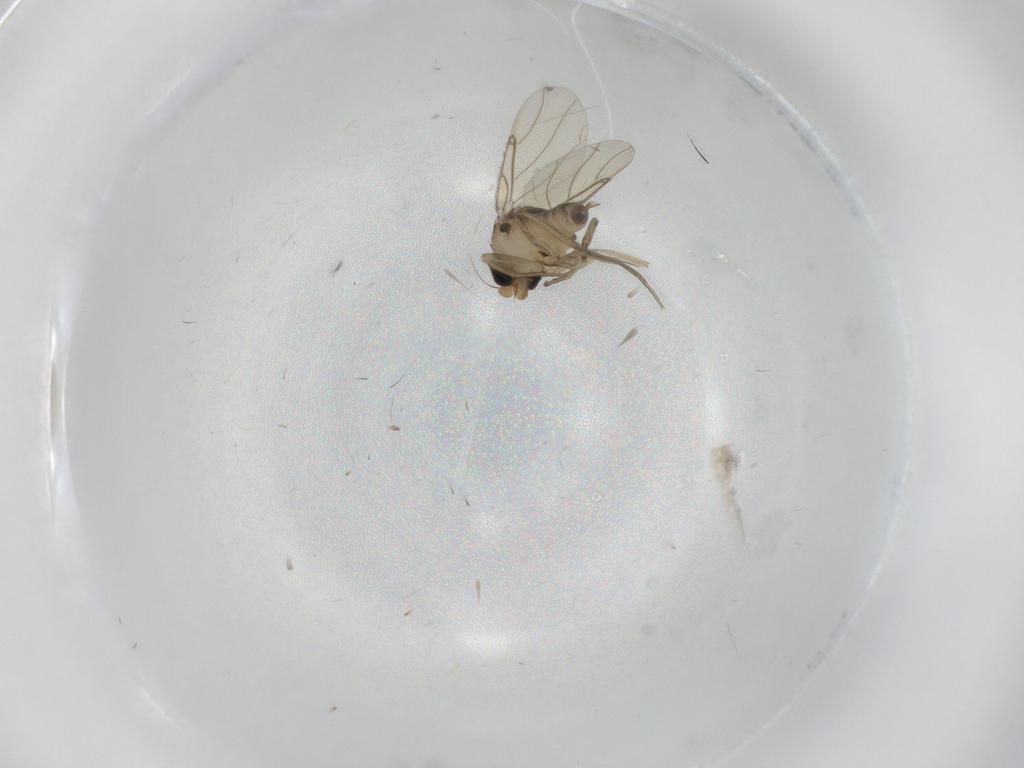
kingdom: Animalia
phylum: Arthropoda
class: Insecta
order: Diptera
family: Phoridae
